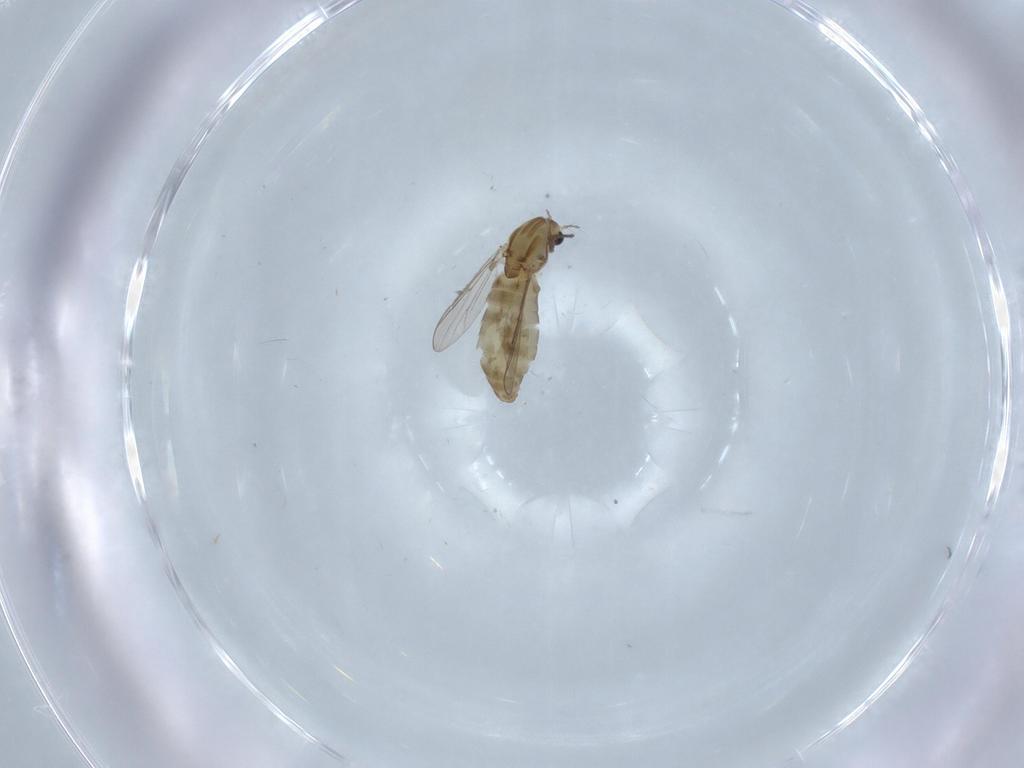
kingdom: Animalia
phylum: Arthropoda
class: Insecta
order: Diptera
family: Chironomidae
